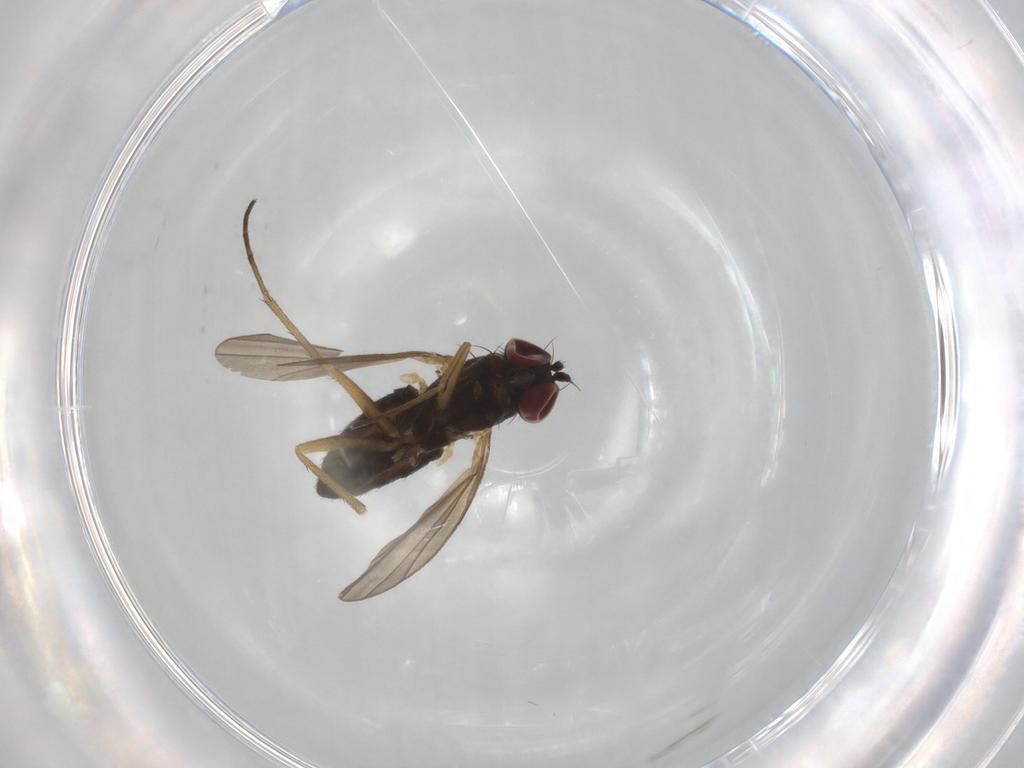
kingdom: Animalia
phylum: Arthropoda
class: Insecta
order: Diptera
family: Cecidomyiidae
